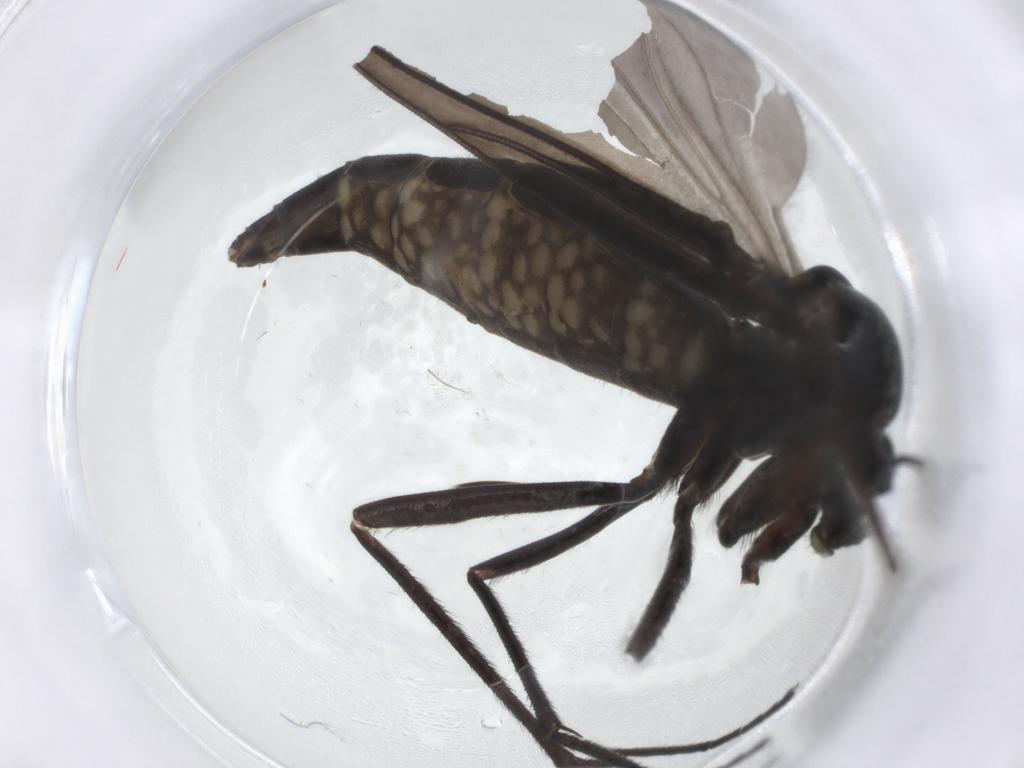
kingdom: Animalia
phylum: Arthropoda
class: Insecta
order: Diptera
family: Sciaridae
